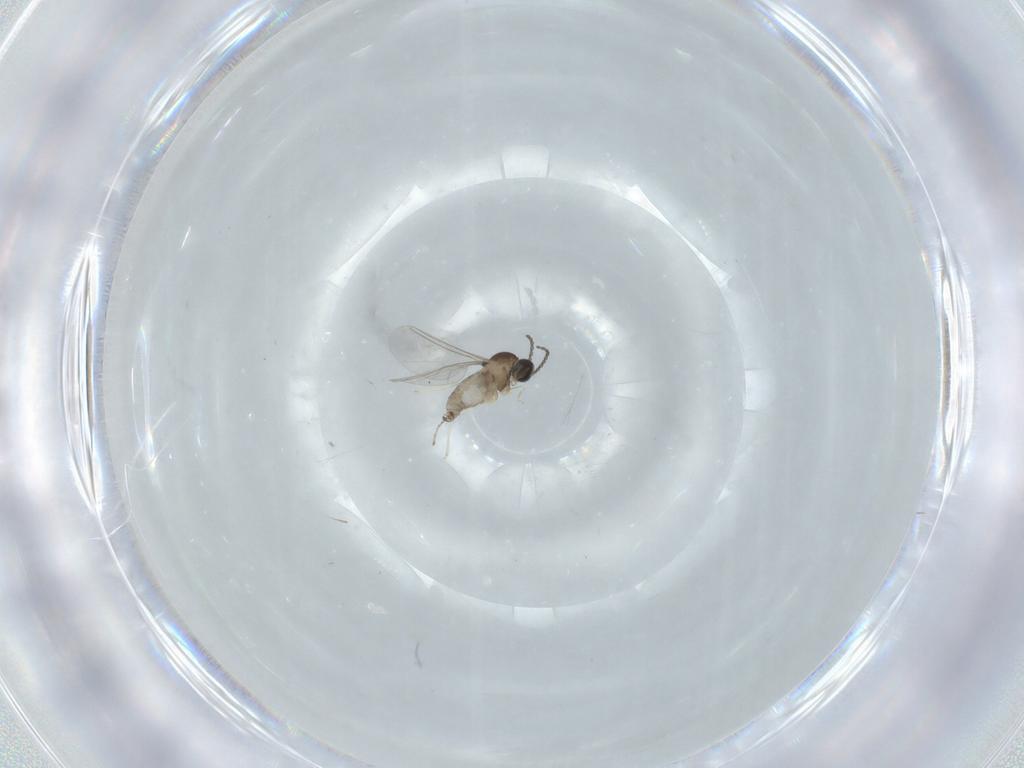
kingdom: Animalia
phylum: Arthropoda
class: Insecta
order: Diptera
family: Cecidomyiidae
